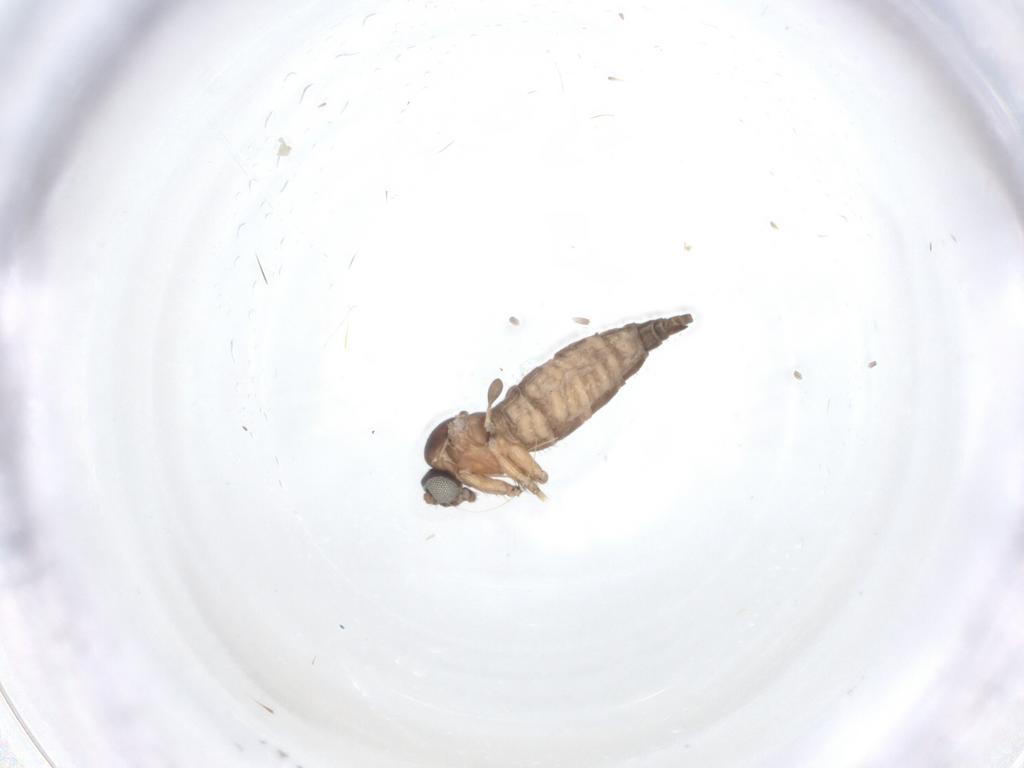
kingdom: Animalia
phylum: Arthropoda
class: Insecta
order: Diptera
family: Sciaridae
